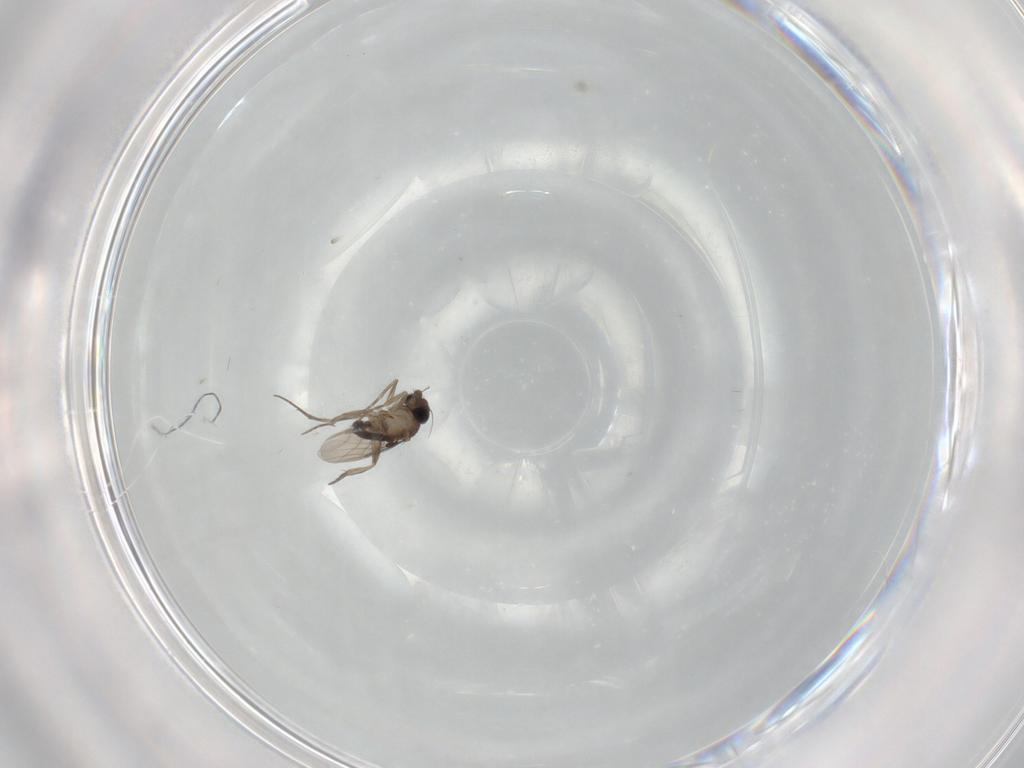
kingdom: Animalia
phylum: Arthropoda
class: Insecta
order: Diptera
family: Phoridae
